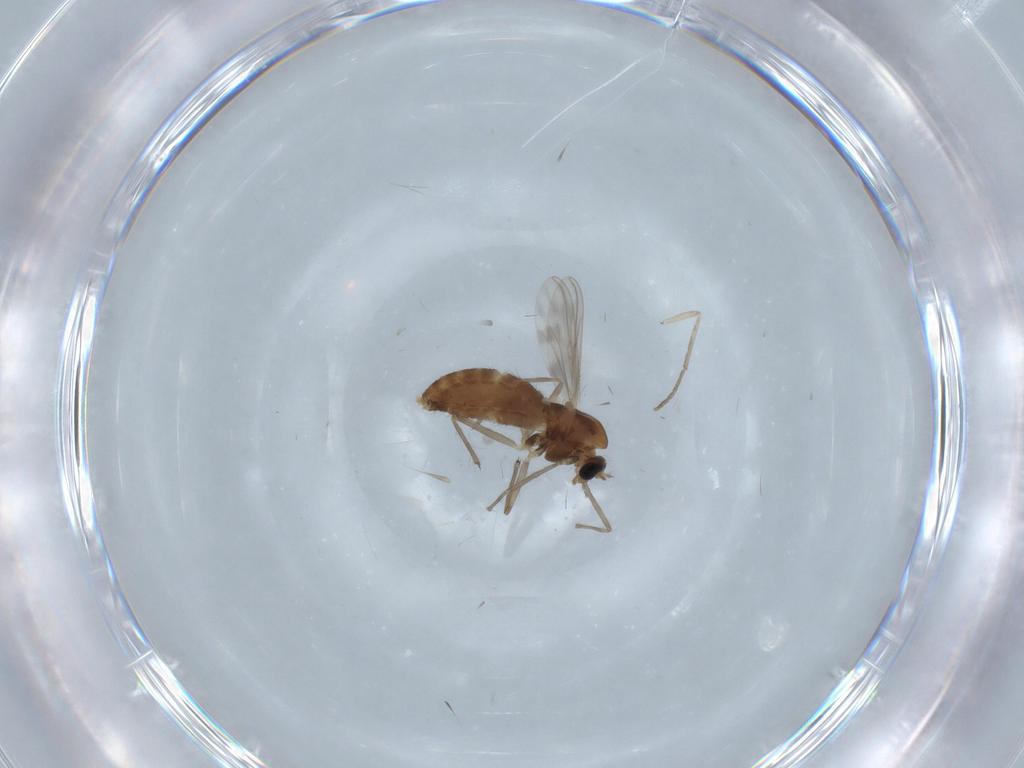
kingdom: Animalia
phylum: Arthropoda
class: Insecta
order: Diptera
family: Chironomidae
